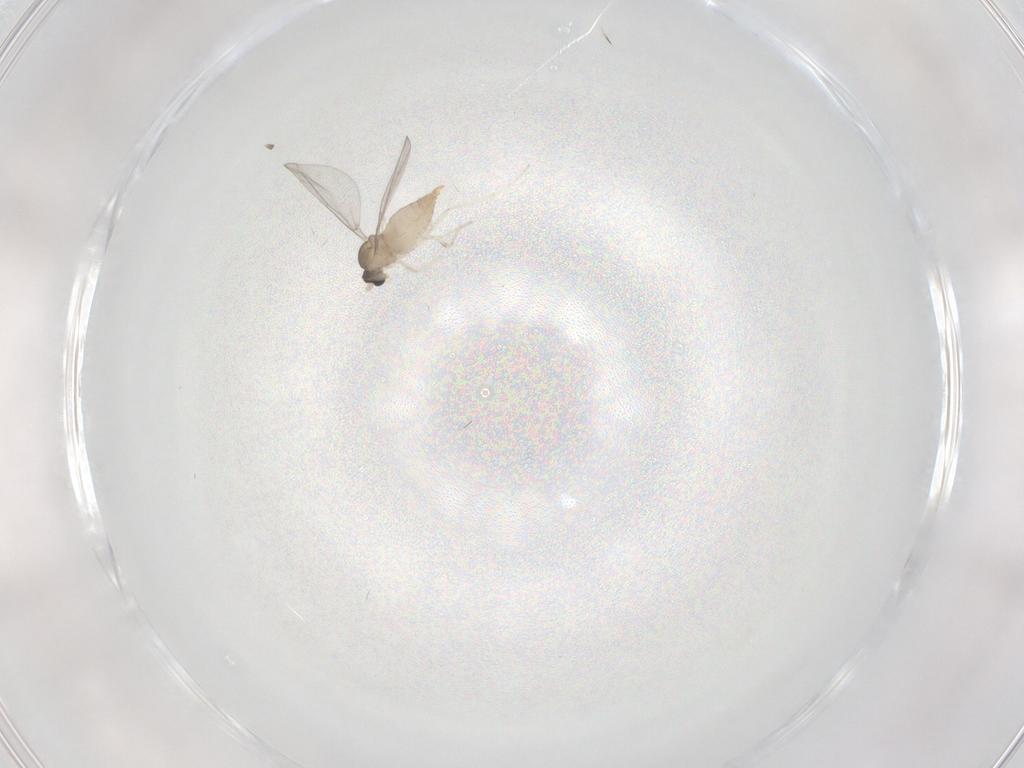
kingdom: Animalia
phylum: Arthropoda
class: Insecta
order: Diptera
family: Cecidomyiidae
